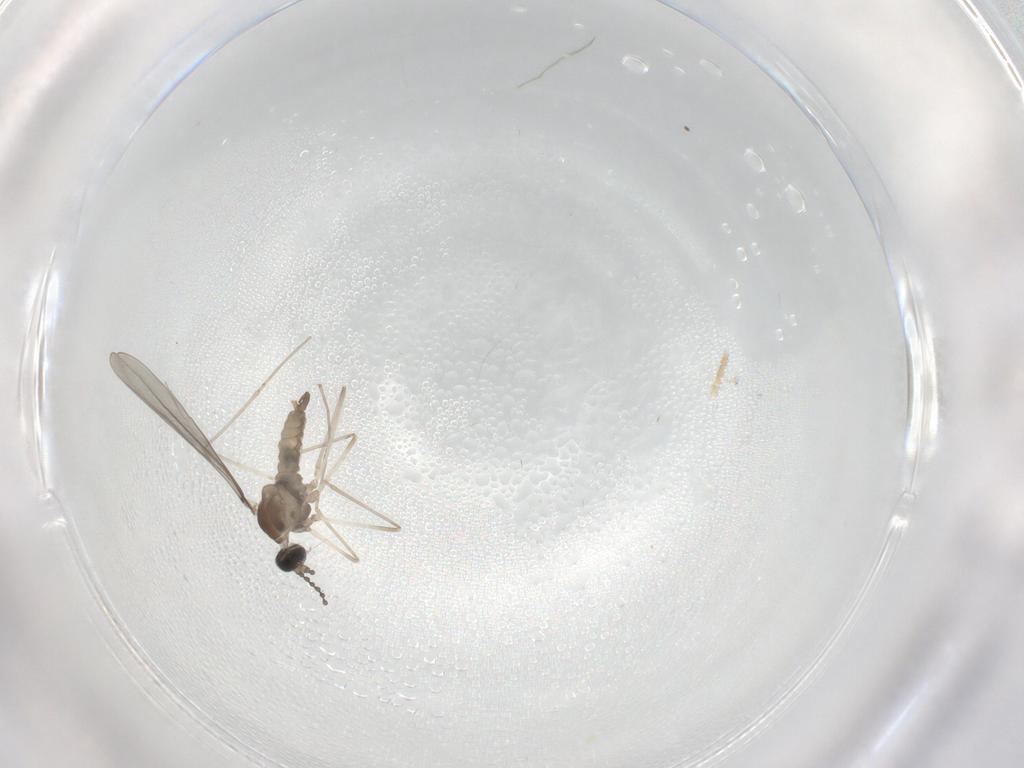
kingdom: Animalia
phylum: Arthropoda
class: Insecta
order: Diptera
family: Cecidomyiidae
